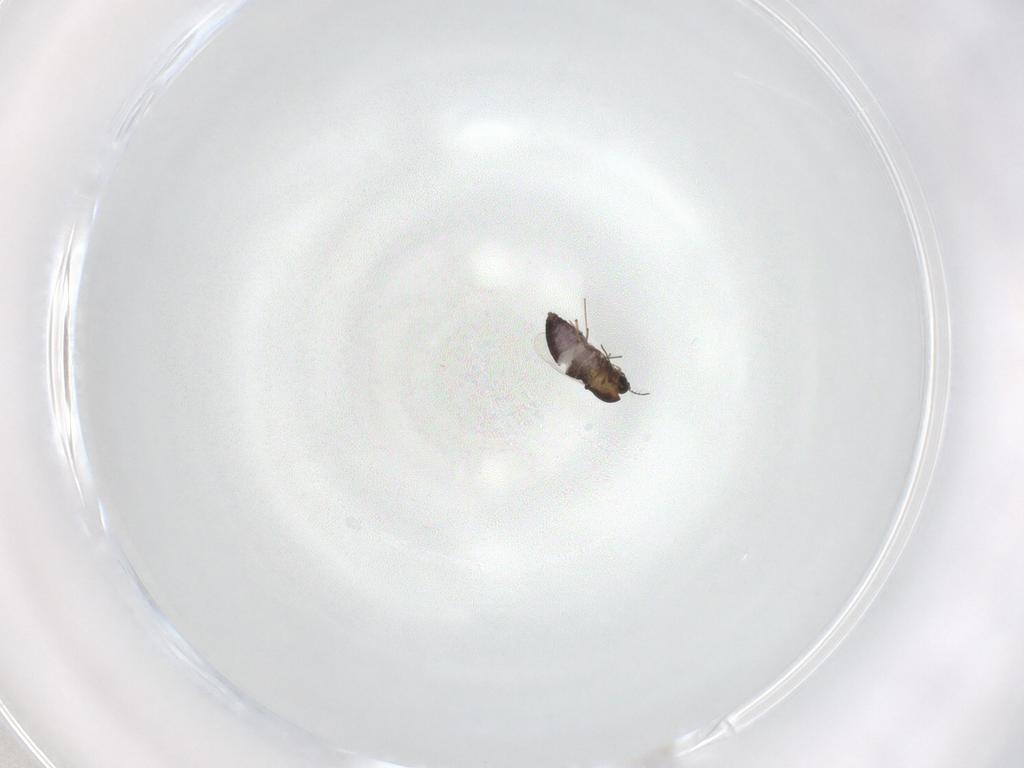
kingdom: Animalia
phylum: Arthropoda
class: Insecta
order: Diptera
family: Chironomidae
